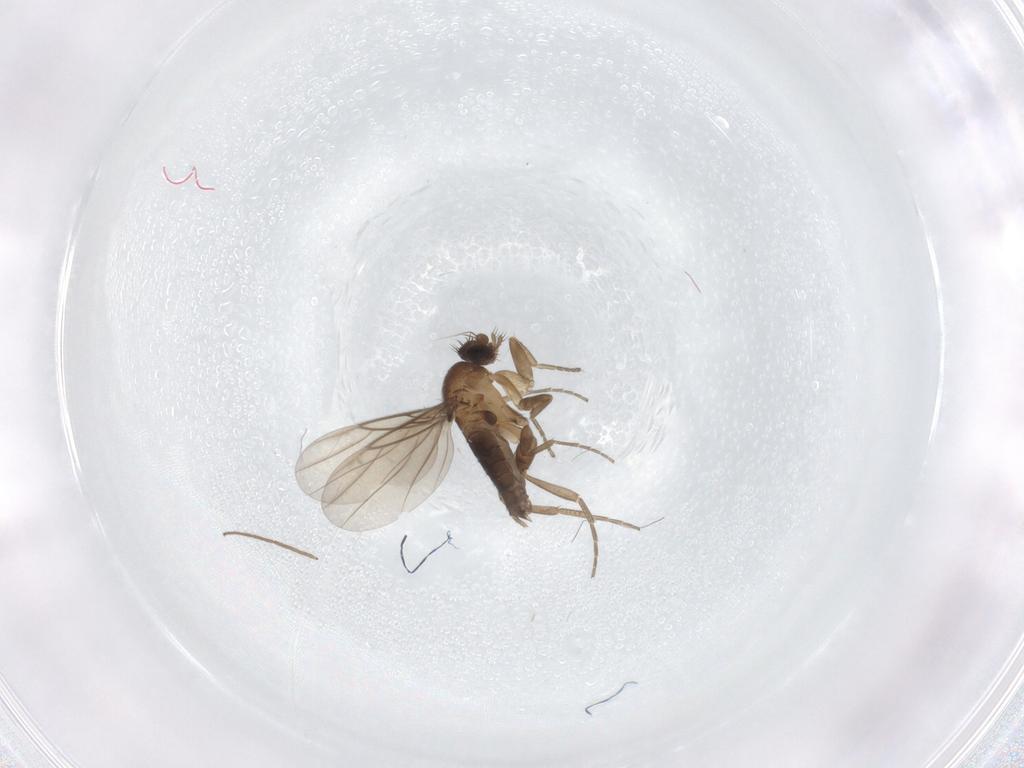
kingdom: Animalia
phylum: Arthropoda
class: Insecta
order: Diptera
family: Phoridae
